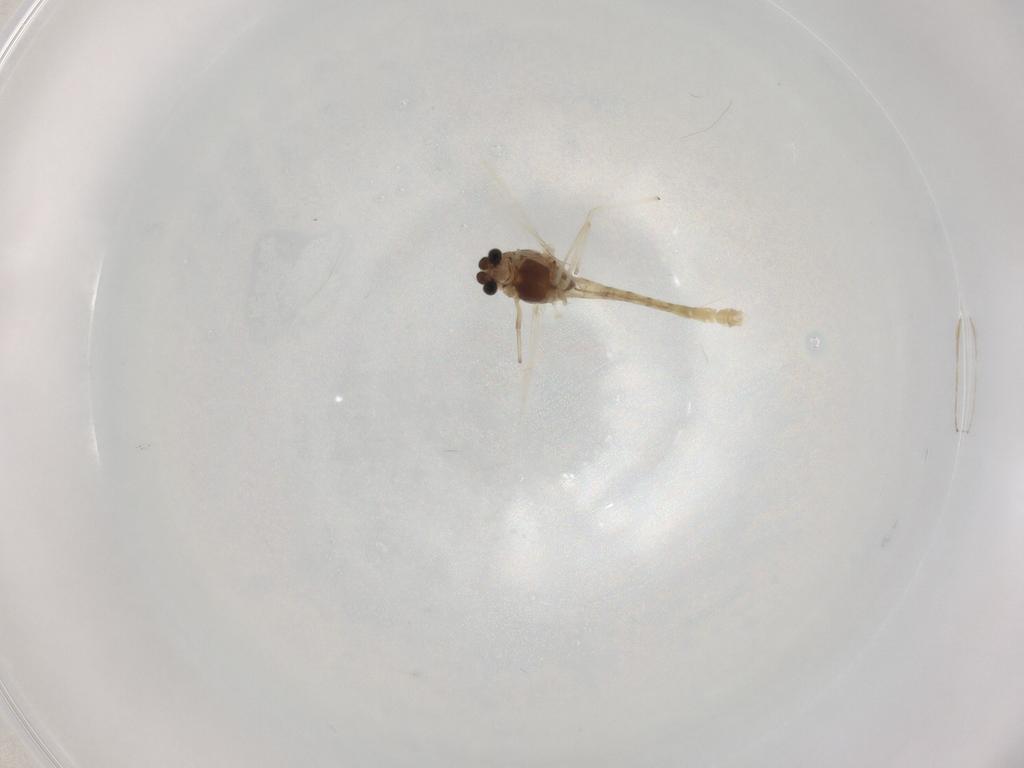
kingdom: Animalia
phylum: Arthropoda
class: Insecta
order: Diptera
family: Chironomidae
